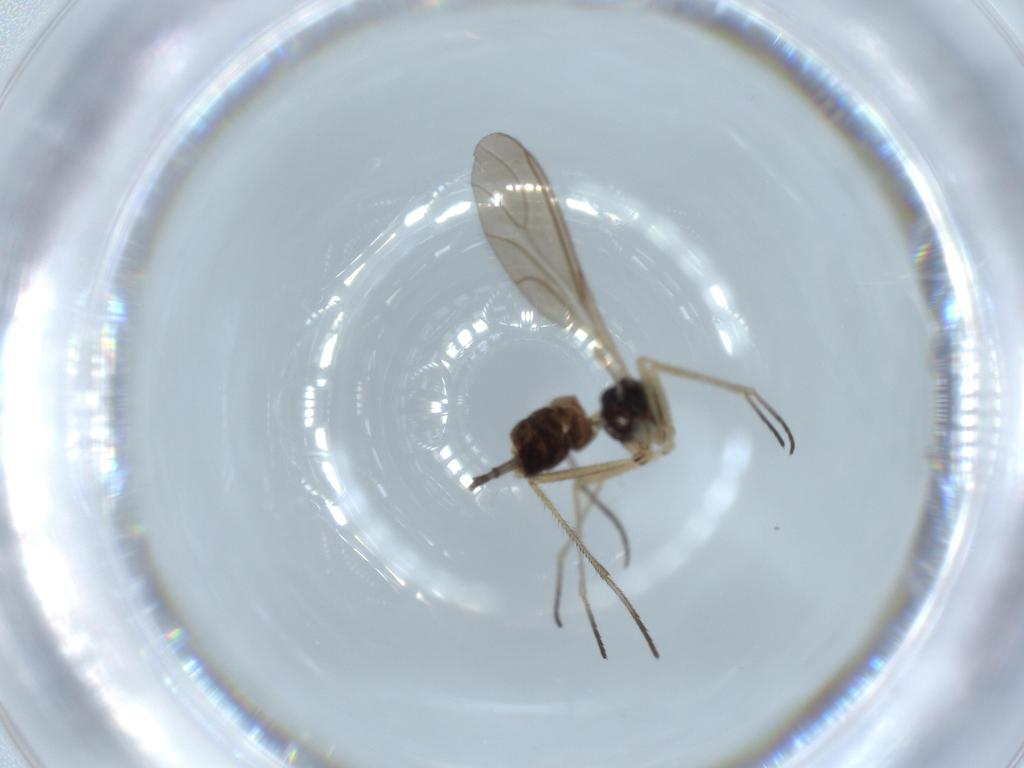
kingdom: Animalia
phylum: Arthropoda
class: Insecta
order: Diptera
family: Sciaridae
